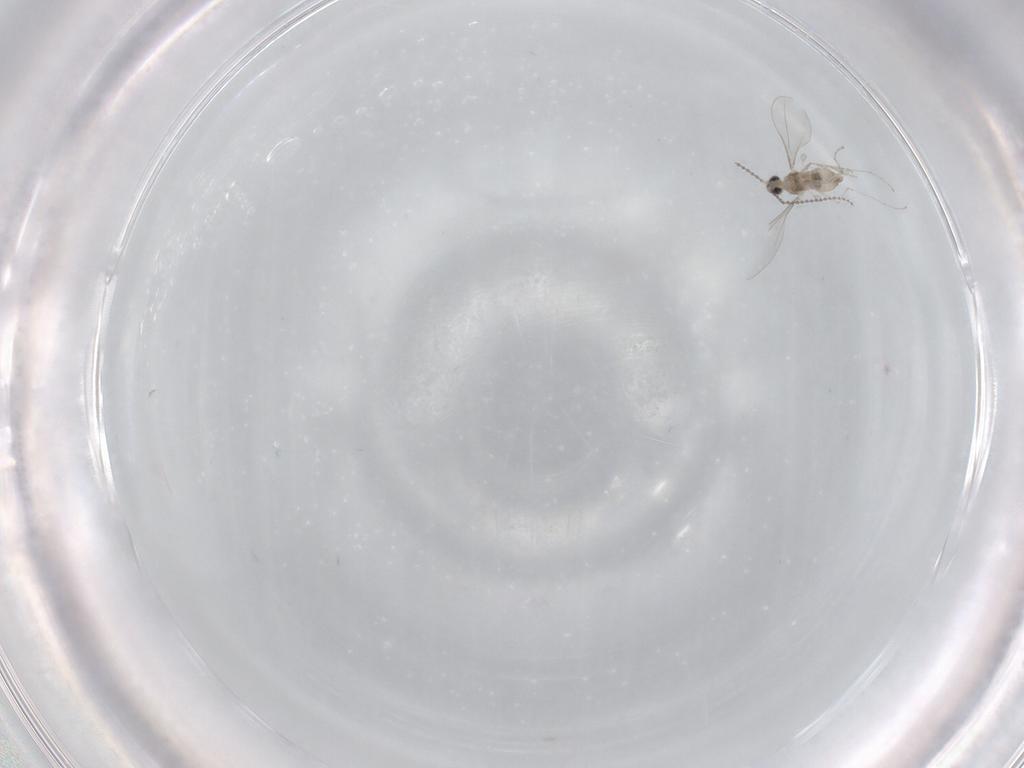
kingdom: Animalia
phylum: Arthropoda
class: Insecta
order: Diptera
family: Cecidomyiidae
